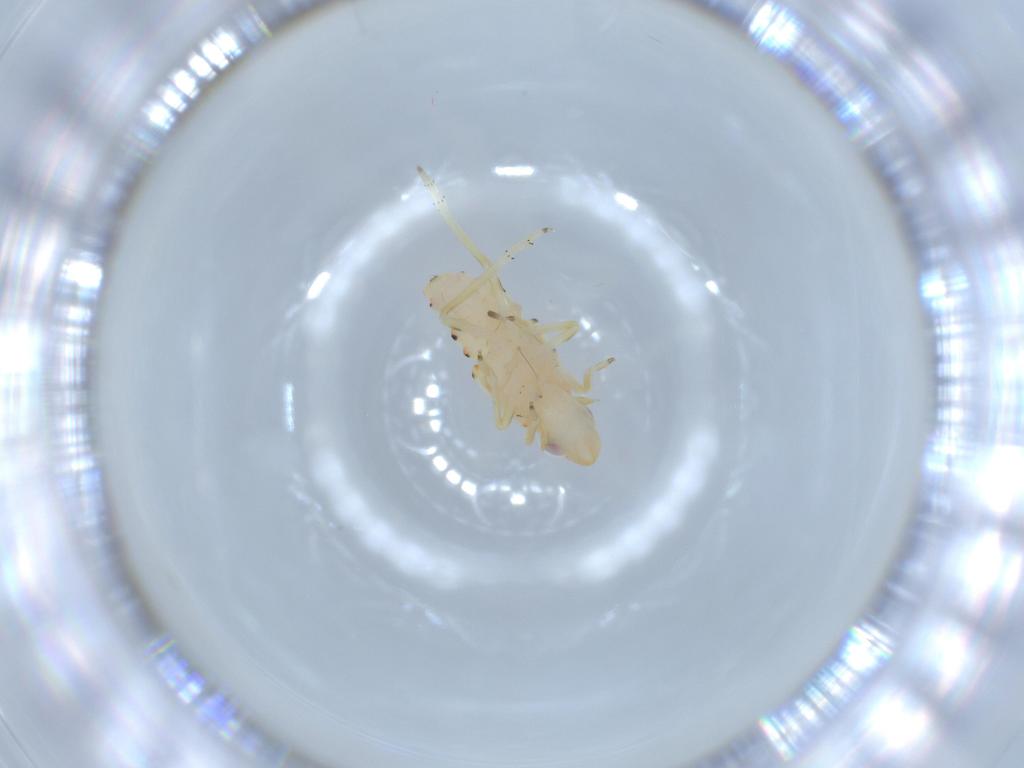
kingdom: Animalia
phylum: Arthropoda
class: Insecta
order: Hemiptera
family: Tropiduchidae
